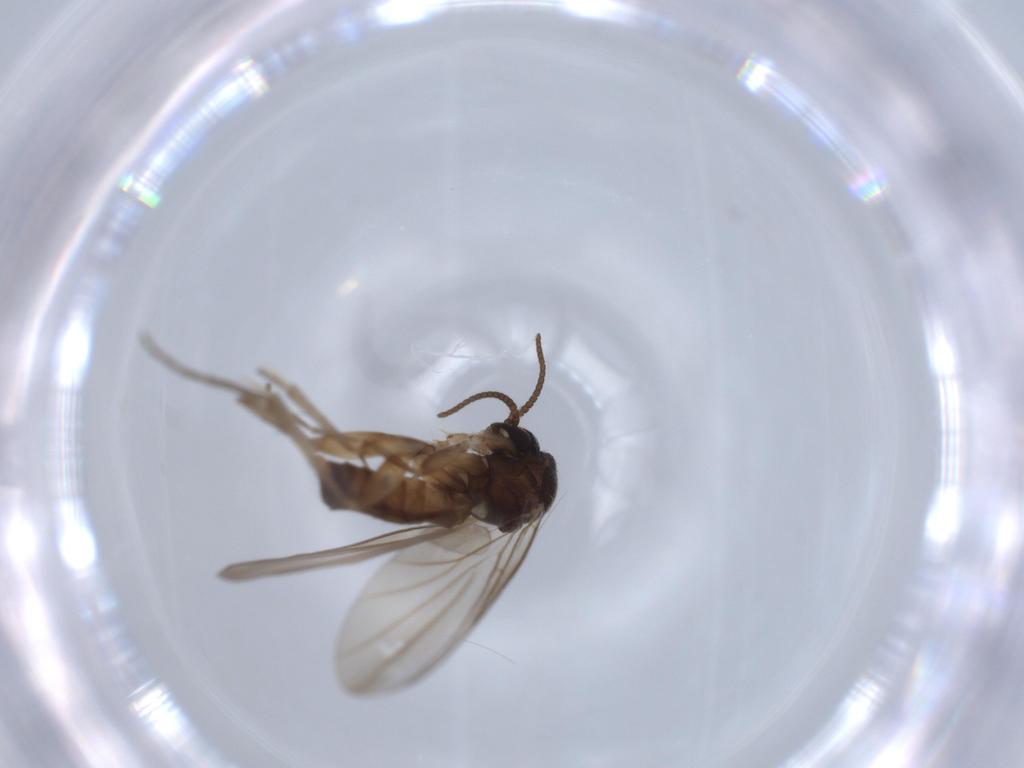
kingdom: Animalia
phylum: Arthropoda
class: Insecta
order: Diptera
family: Mycetophilidae
